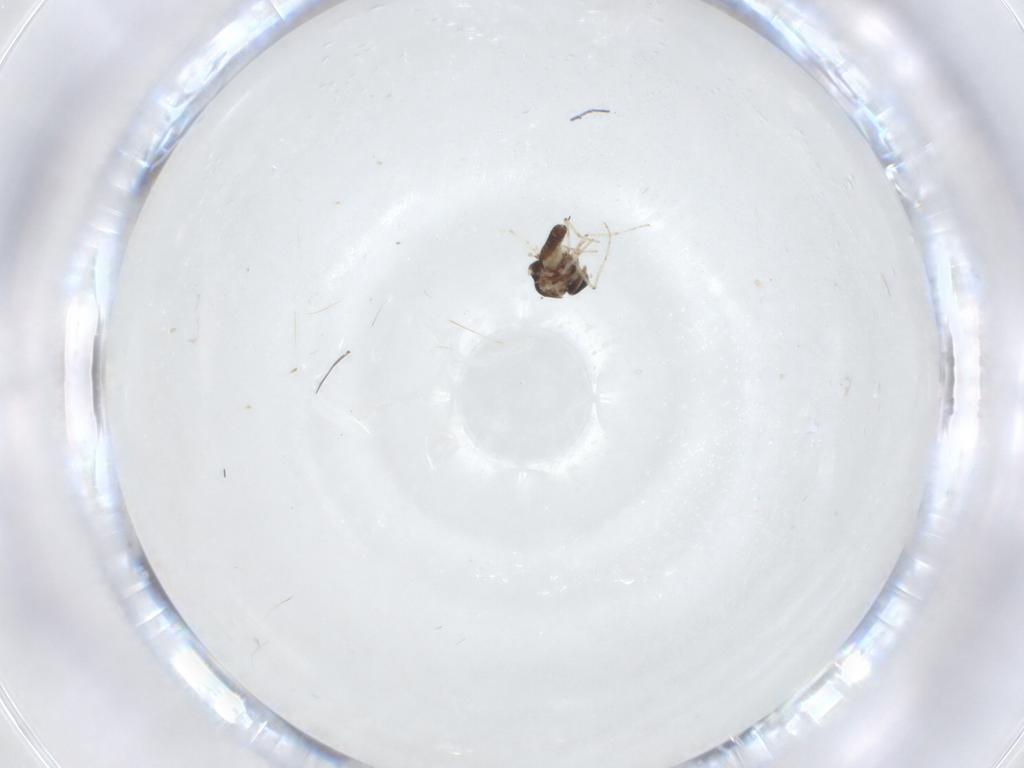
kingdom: Animalia
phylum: Arthropoda
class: Insecta
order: Diptera
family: Ceratopogonidae
